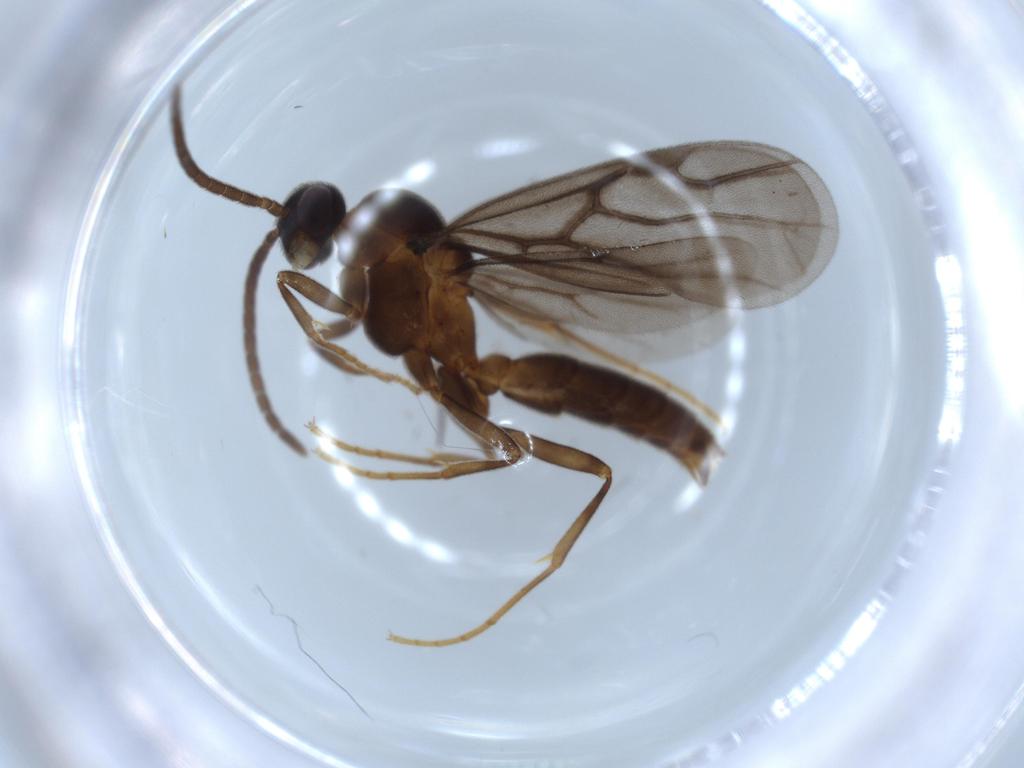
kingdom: Animalia
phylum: Arthropoda
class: Insecta
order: Hymenoptera
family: Formicidae
